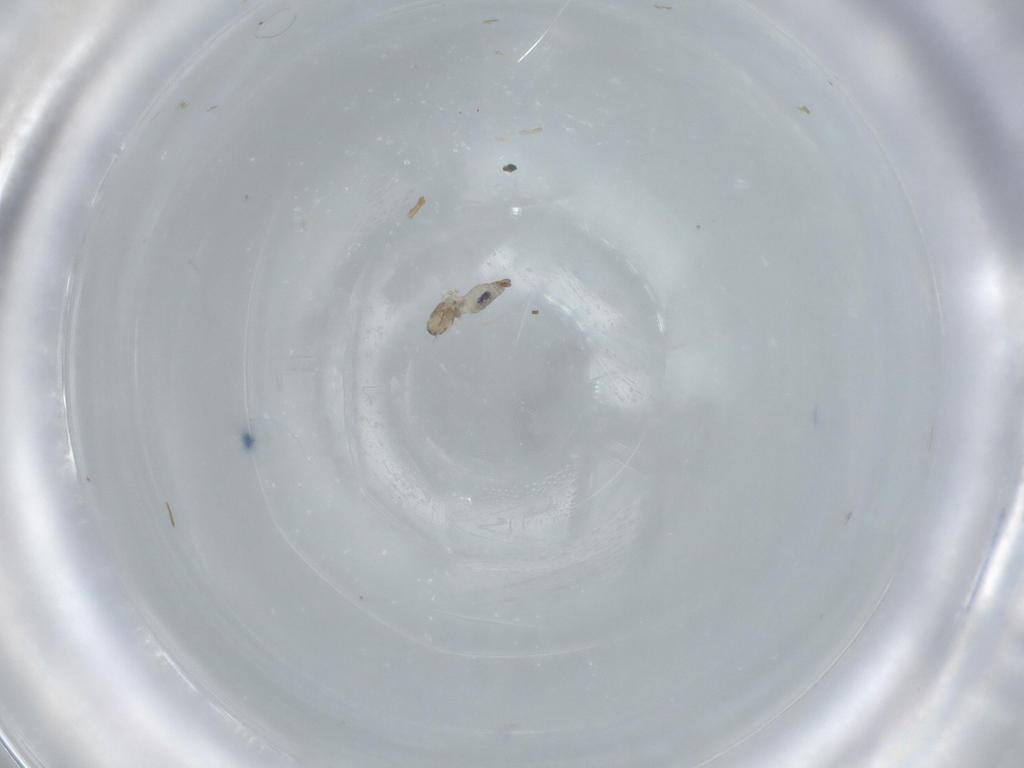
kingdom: Animalia
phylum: Arthropoda
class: Insecta
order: Diptera
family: Cecidomyiidae
